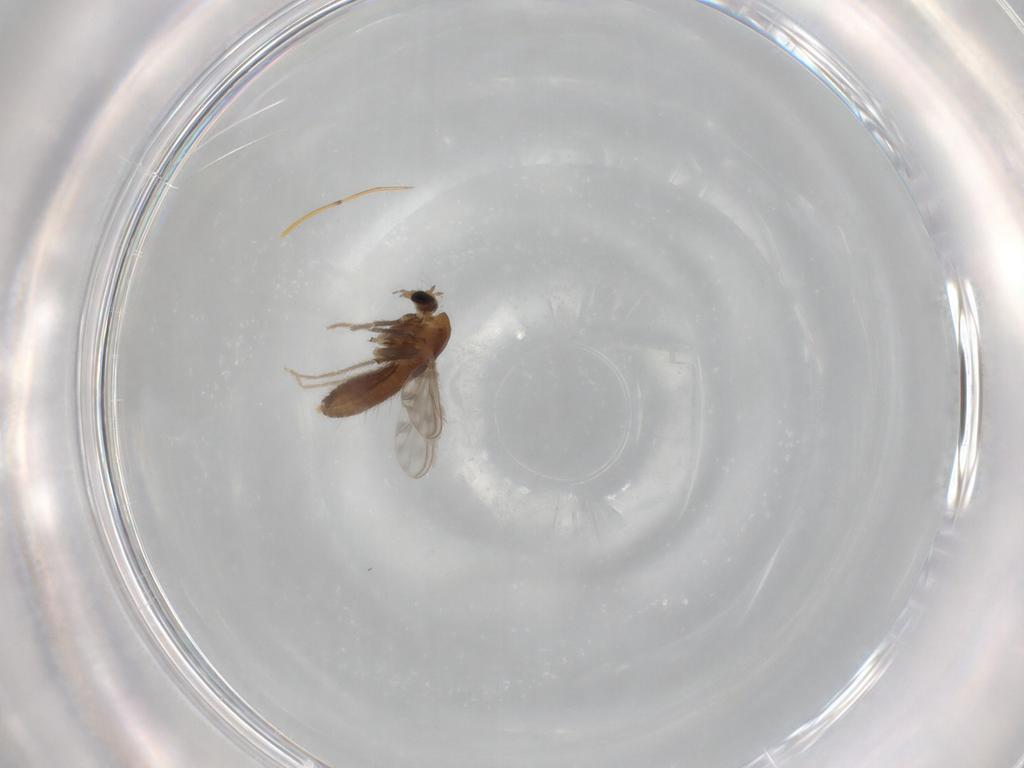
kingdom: Animalia
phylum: Arthropoda
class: Insecta
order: Diptera
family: Chironomidae
